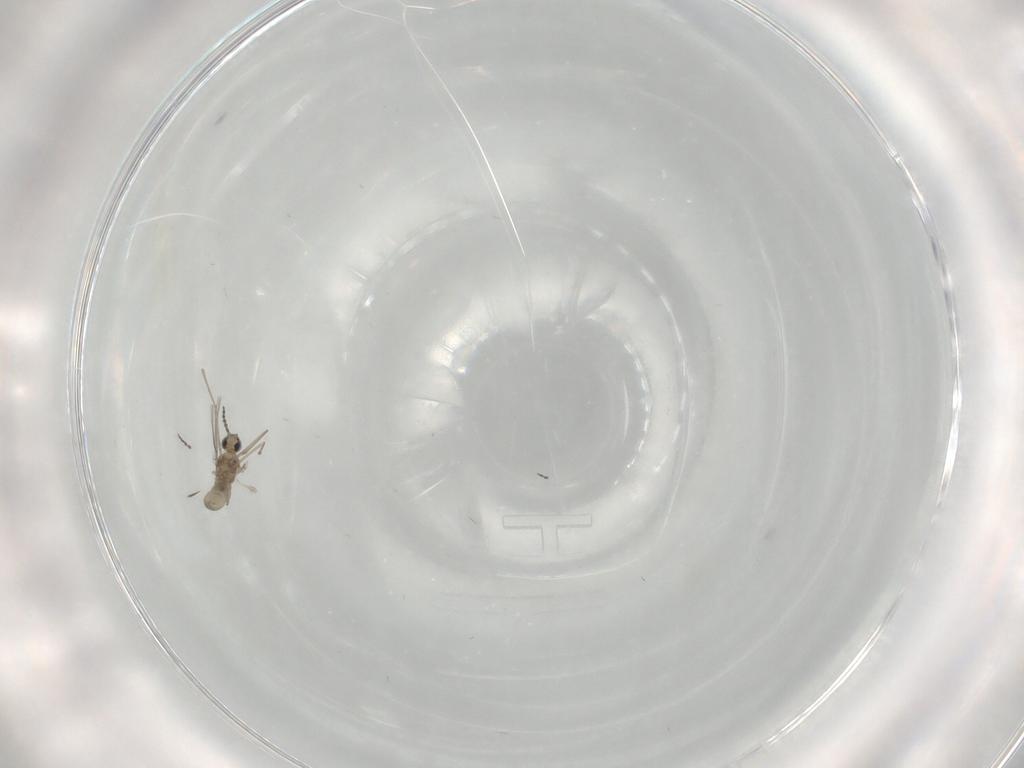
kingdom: Animalia
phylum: Arthropoda
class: Insecta
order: Diptera
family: Cecidomyiidae
